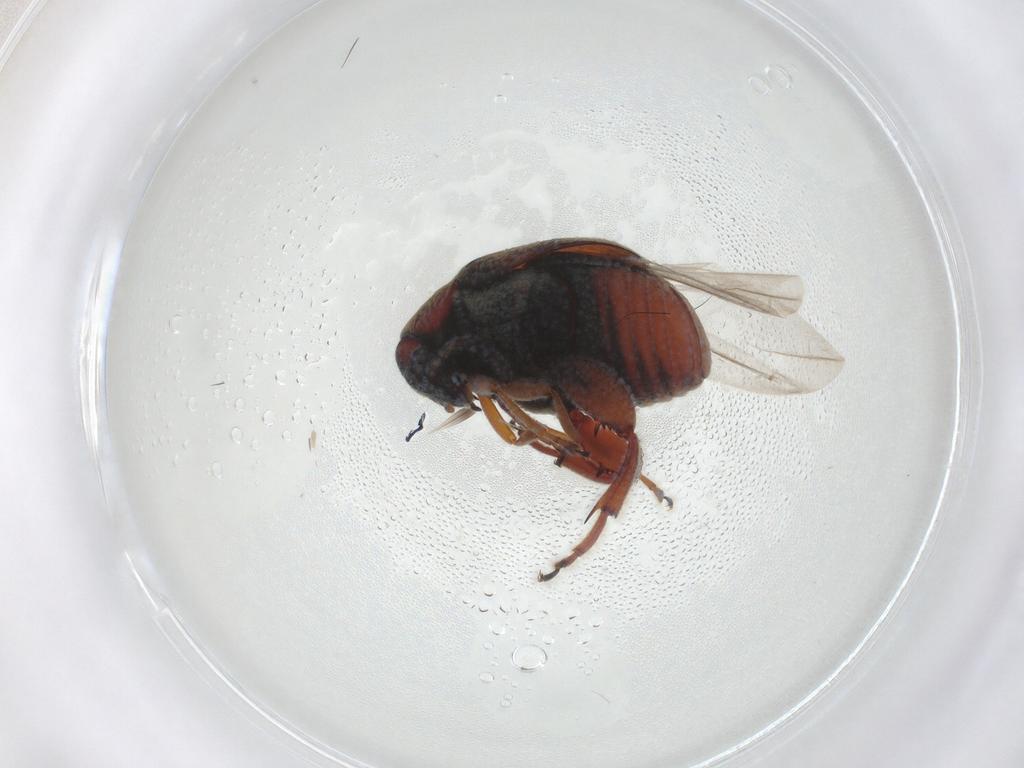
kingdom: Animalia
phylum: Arthropoda
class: Insecta
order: Coleoptera
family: Chrysomelidae
